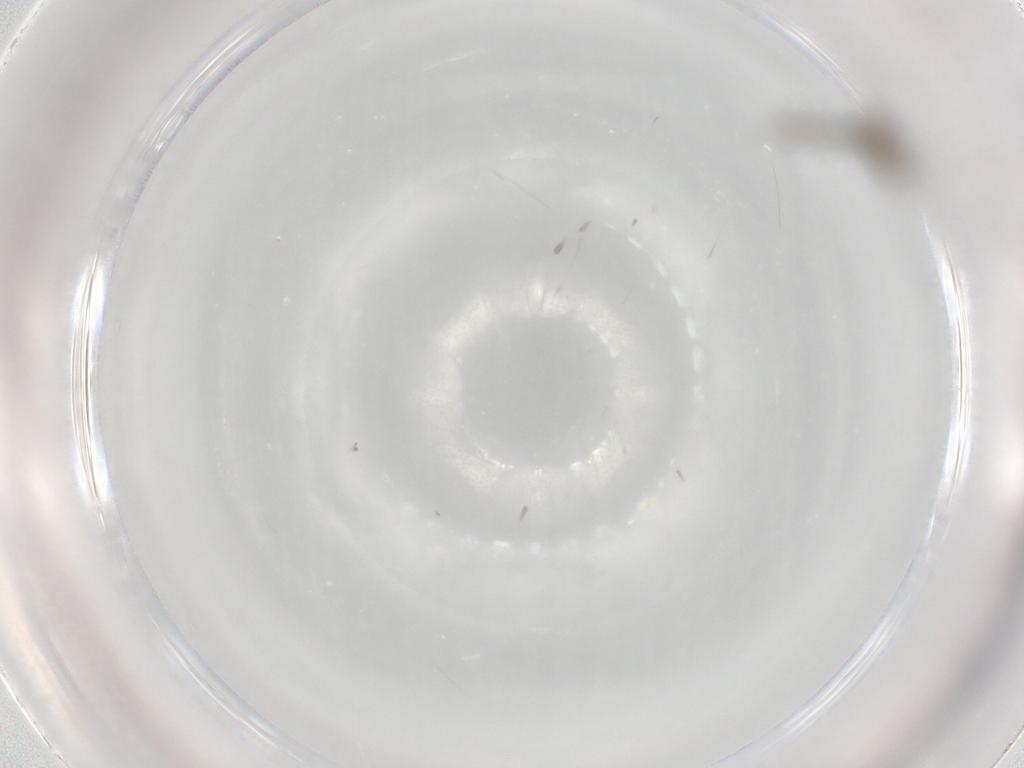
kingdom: Animalia
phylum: Arthropoda
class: Insecta
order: Diptera
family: Cecidomyiidae
